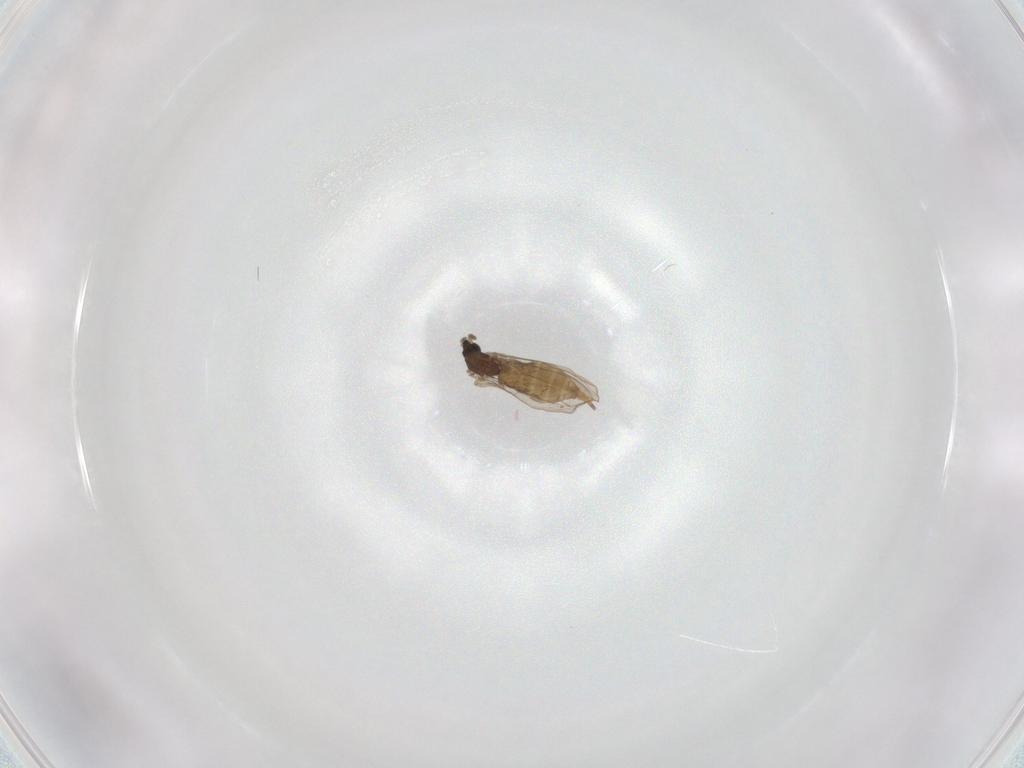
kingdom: Animalia
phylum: Arthropoda
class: Insecta
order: Diptera
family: Cecidomyiidae
